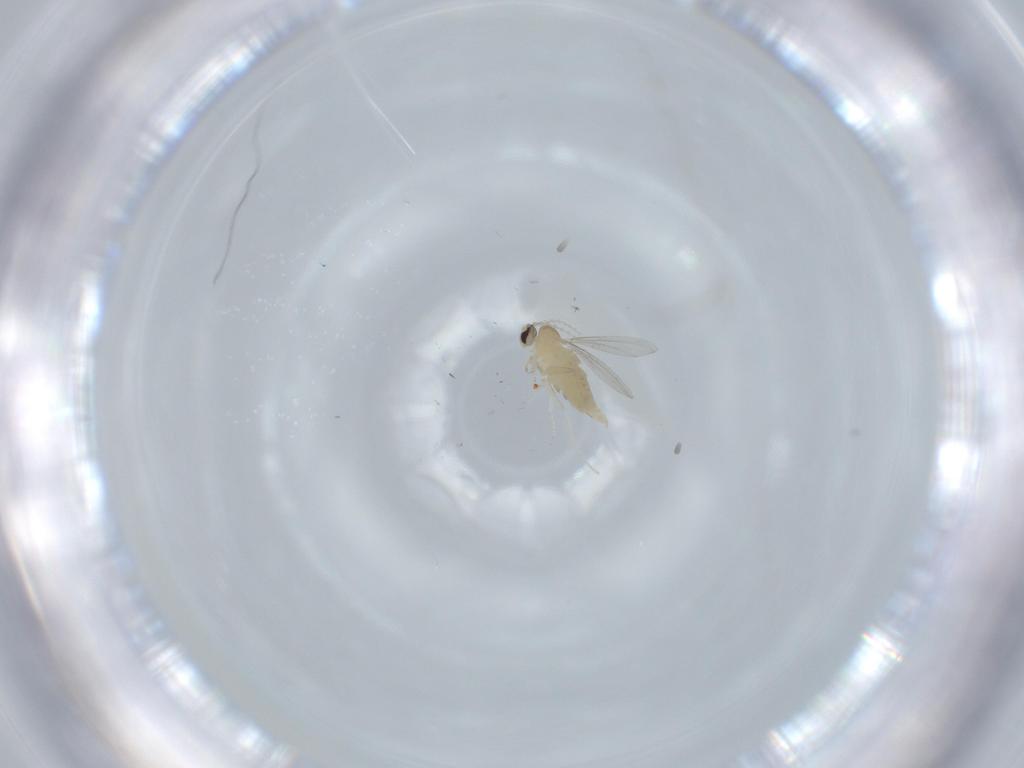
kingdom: Animalia
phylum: Arthropoda
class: Insecta
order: Diptera
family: Cecidomyiidae
